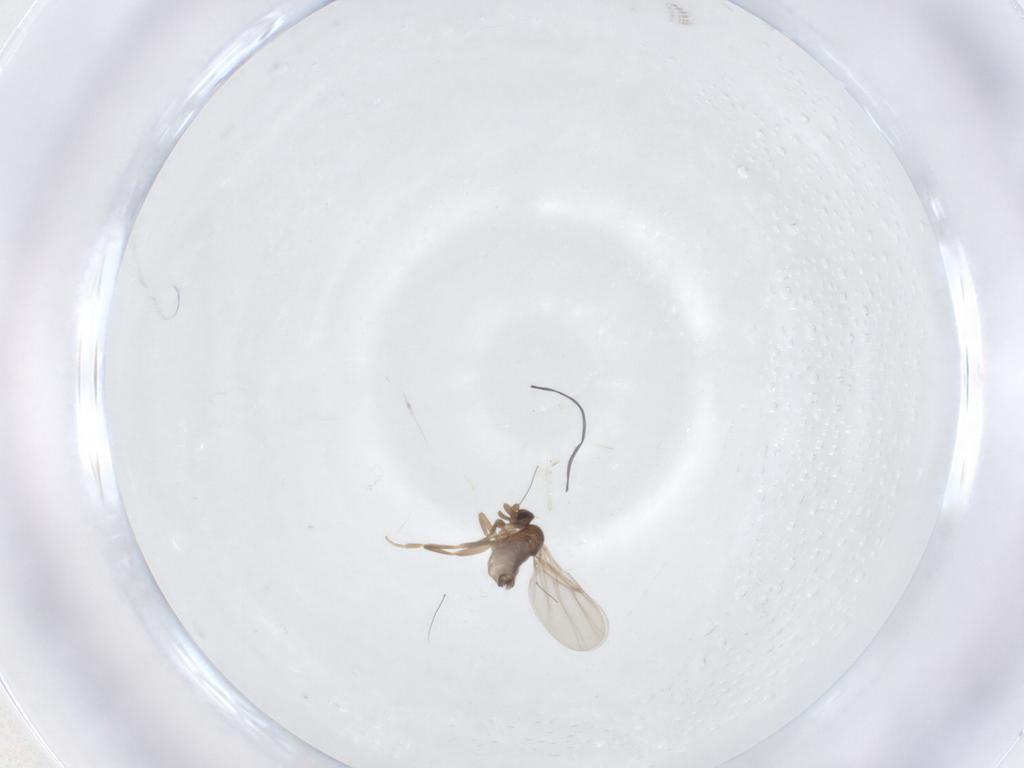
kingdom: Animalia
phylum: Arthropoda
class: Insecta
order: Diptera
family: Phoridae
